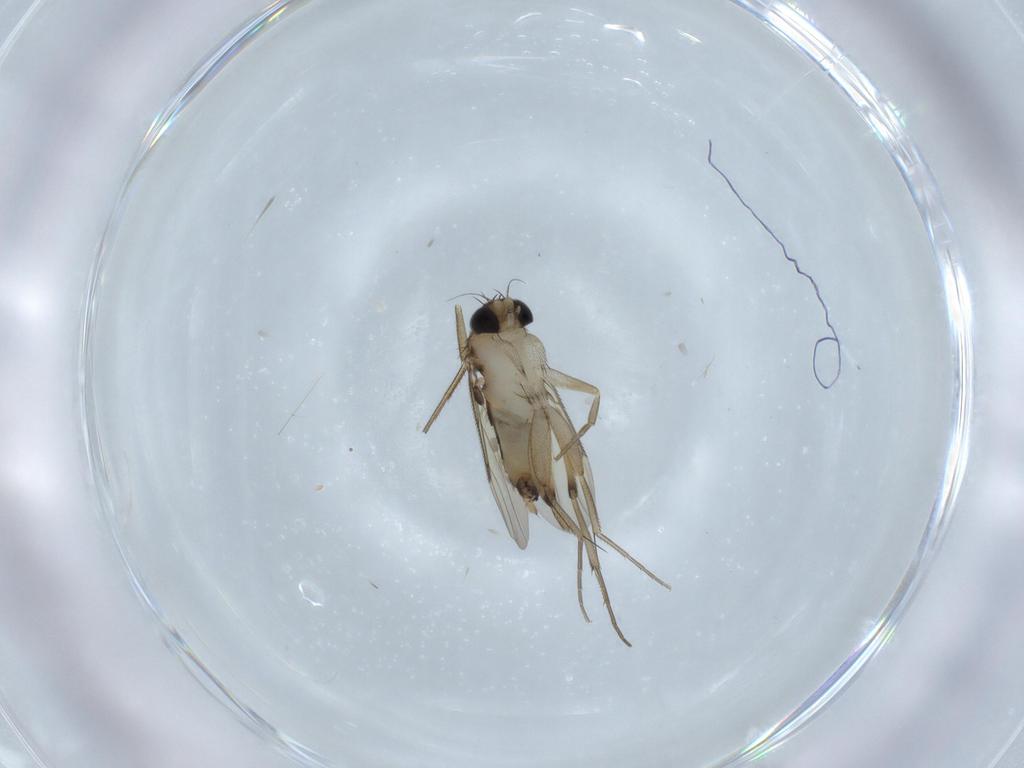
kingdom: Animalia
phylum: Arthropoda
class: Insecta
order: Diptera
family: Phoridae
